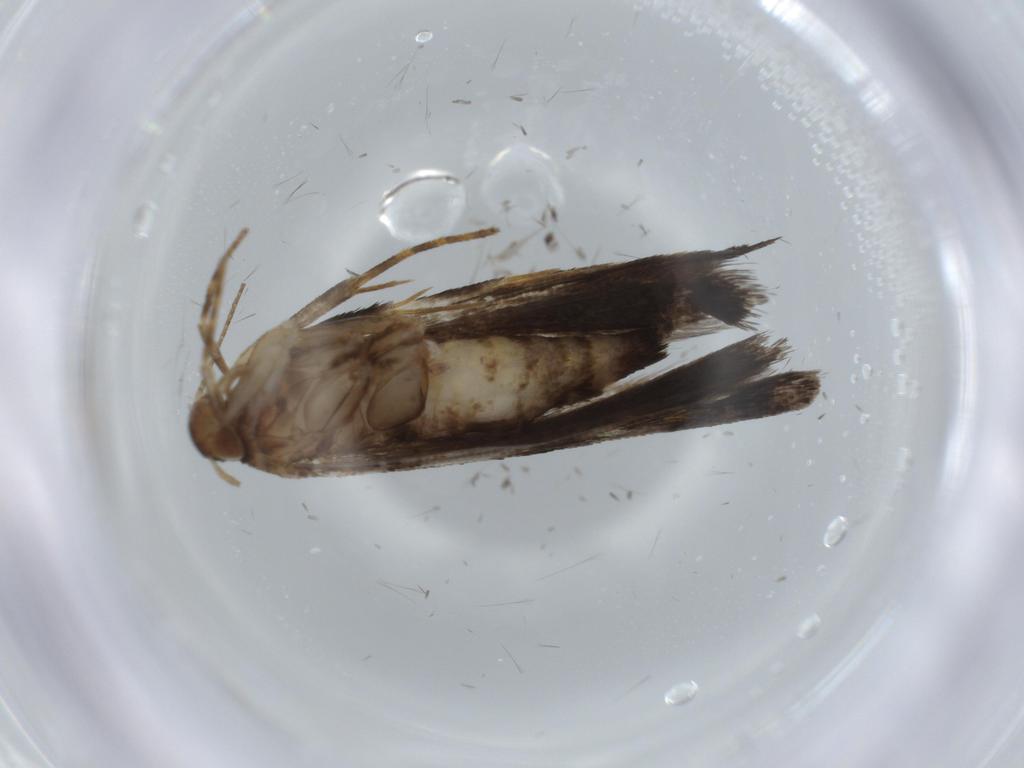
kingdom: Animalia
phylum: Arthropoda
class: Insecta
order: Lepidoptera
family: Gelechiidae
